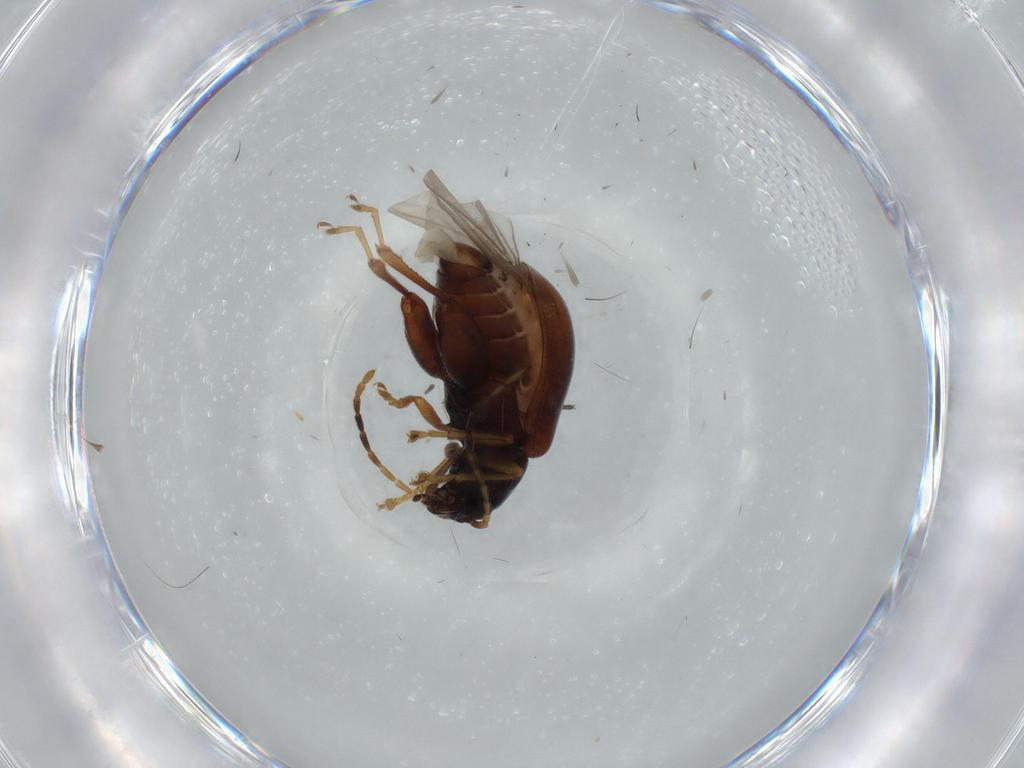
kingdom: Animalia
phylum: Arthropoda
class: Insecta
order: Coleoptera
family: Chrysomelidae
